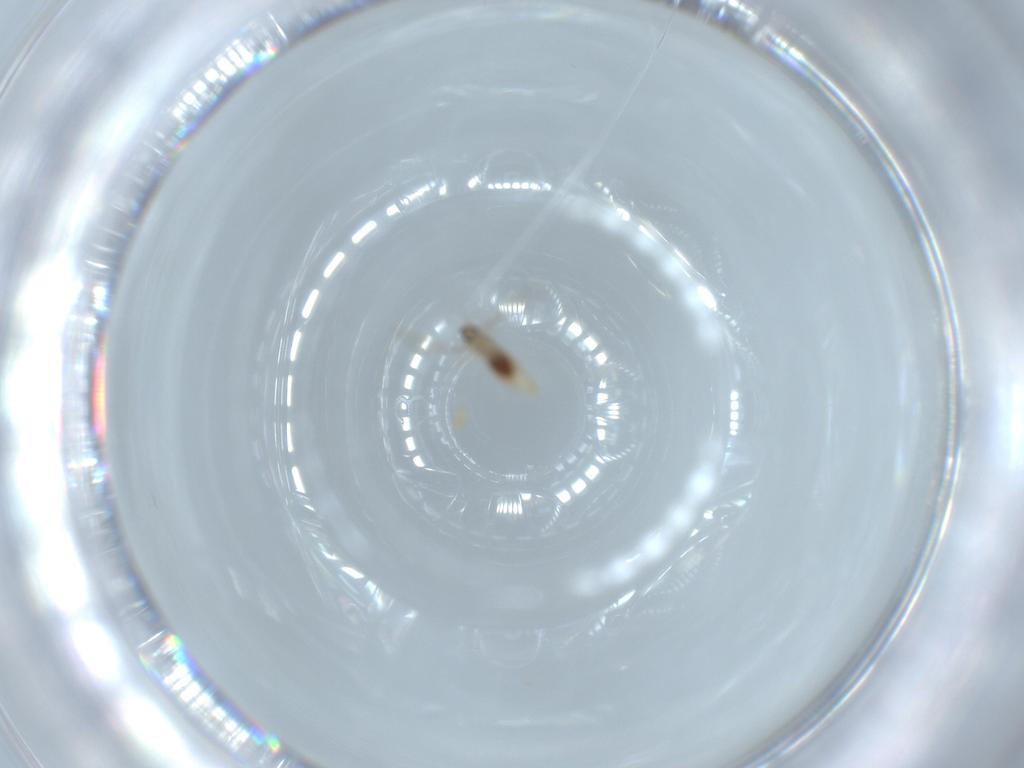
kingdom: Animalia
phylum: Arthropoda
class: Insecta
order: Diptera
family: Cecidomyiidae
